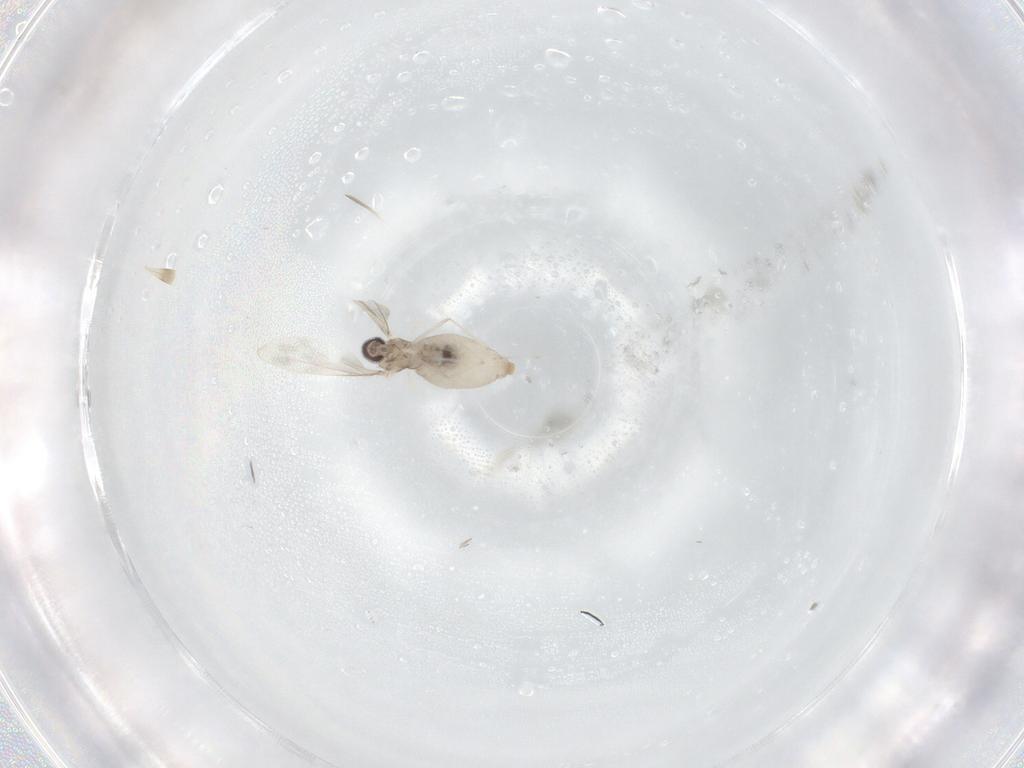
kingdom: Animalia
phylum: Arthropoda
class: Insecta
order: Diptera
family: Cecidomyiidae
